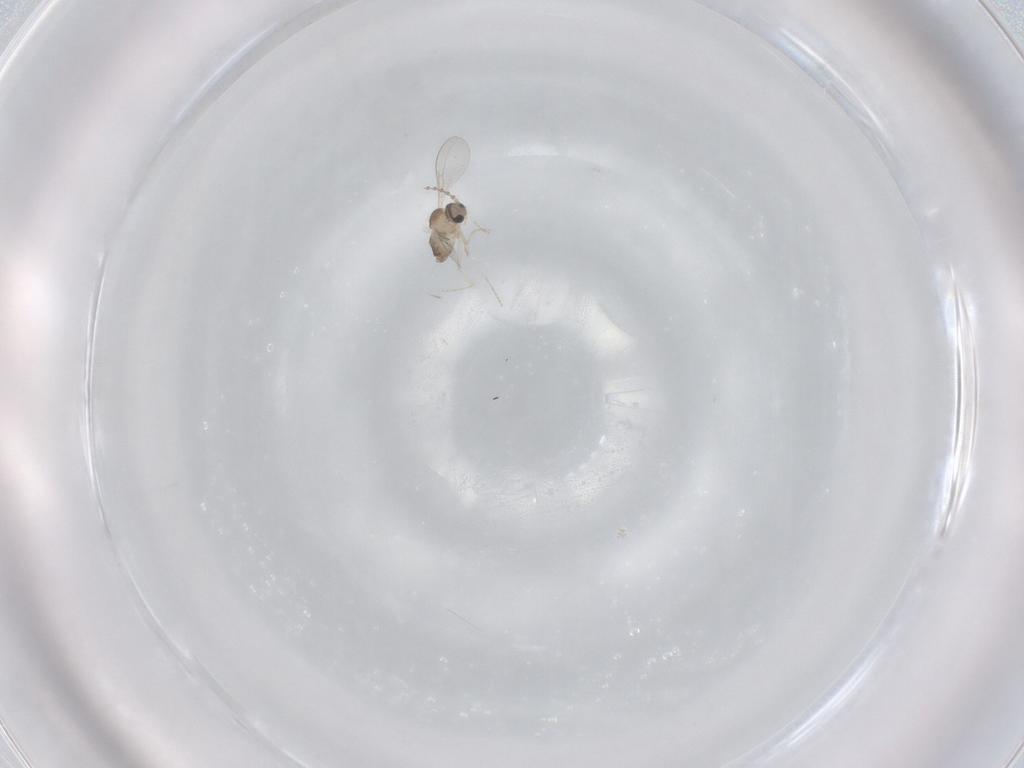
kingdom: Animalia
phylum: Arthropoda
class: Insecta
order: Diptera
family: Cecidomyiidae
